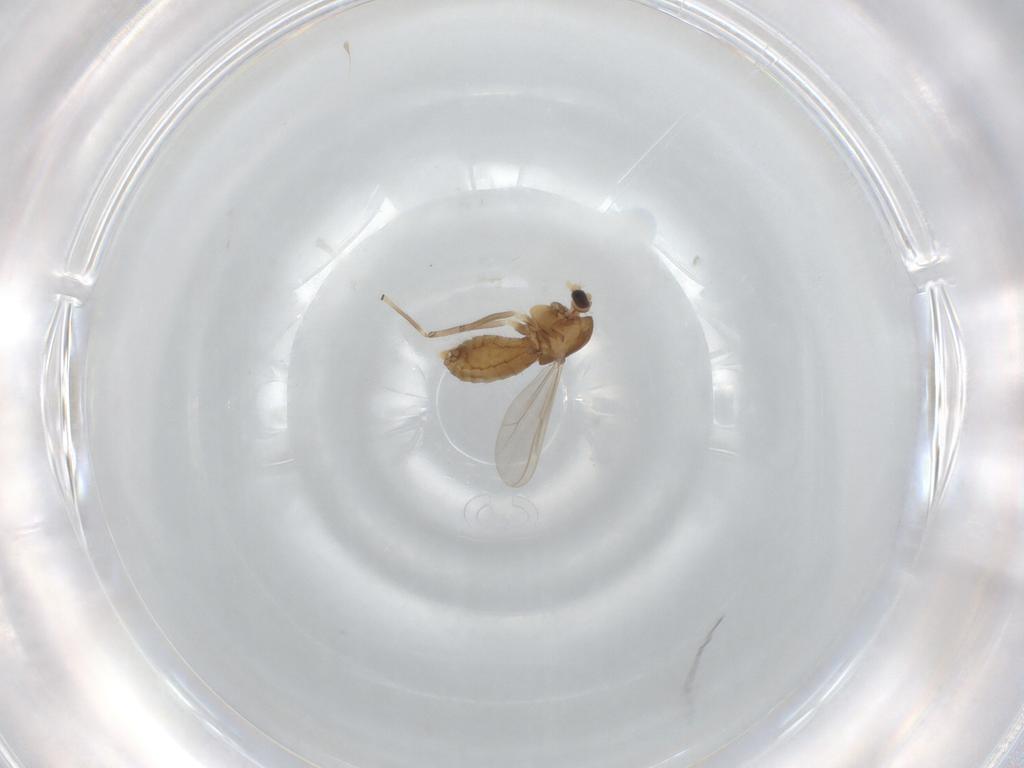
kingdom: Animalia
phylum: Arthropoda
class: Insecta
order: Diptera
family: Chironomidae
